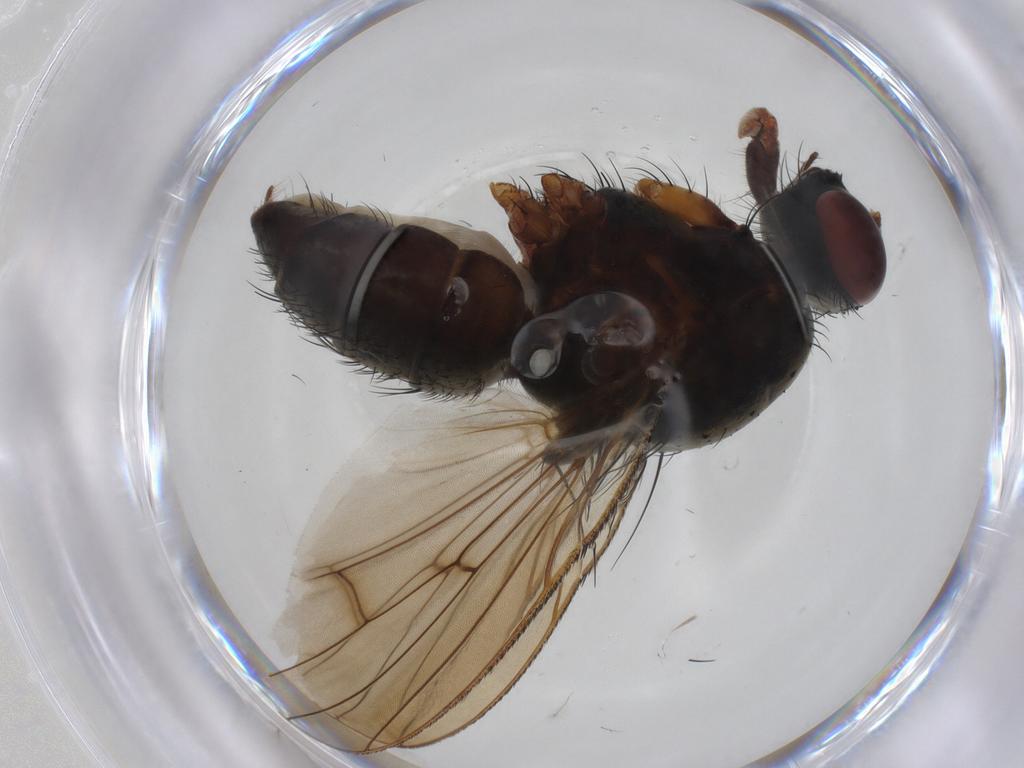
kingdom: Animalia
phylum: Arthropoda
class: Insecta
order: Diptera
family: Anthomyiidae
